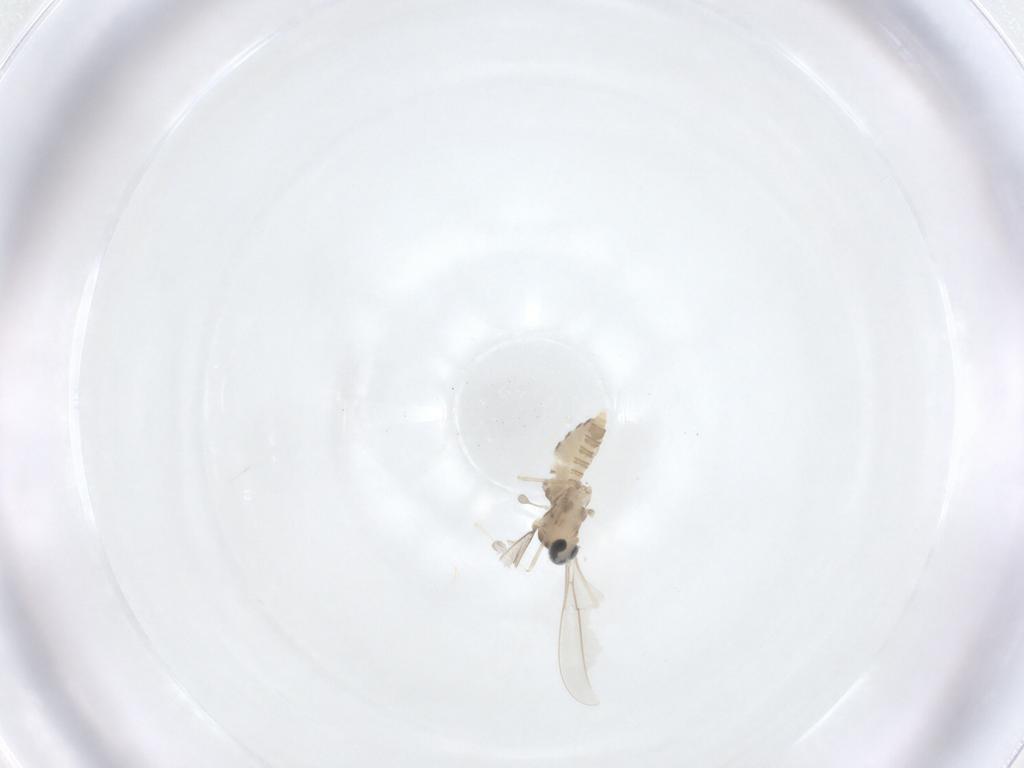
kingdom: Animalia
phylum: Arthropoda
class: Insecta
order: Diptera
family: Cecidomyiidae
